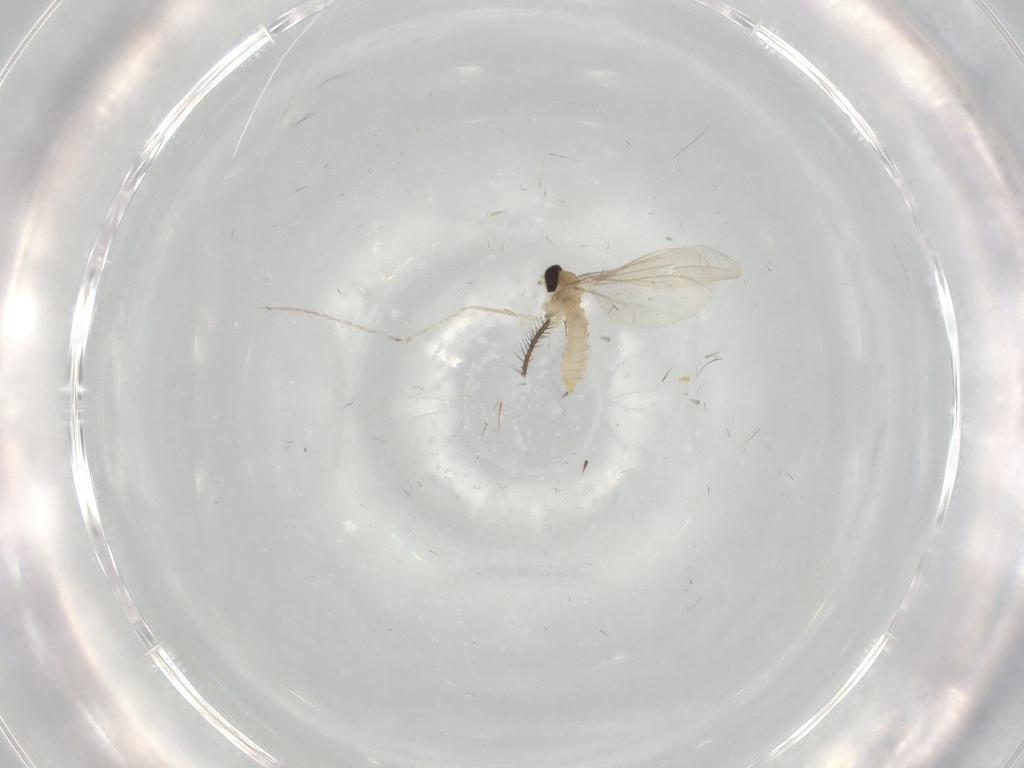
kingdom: Animalia
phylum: Arthropoda
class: Insecta
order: Diptera
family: Cecidomyiidae
